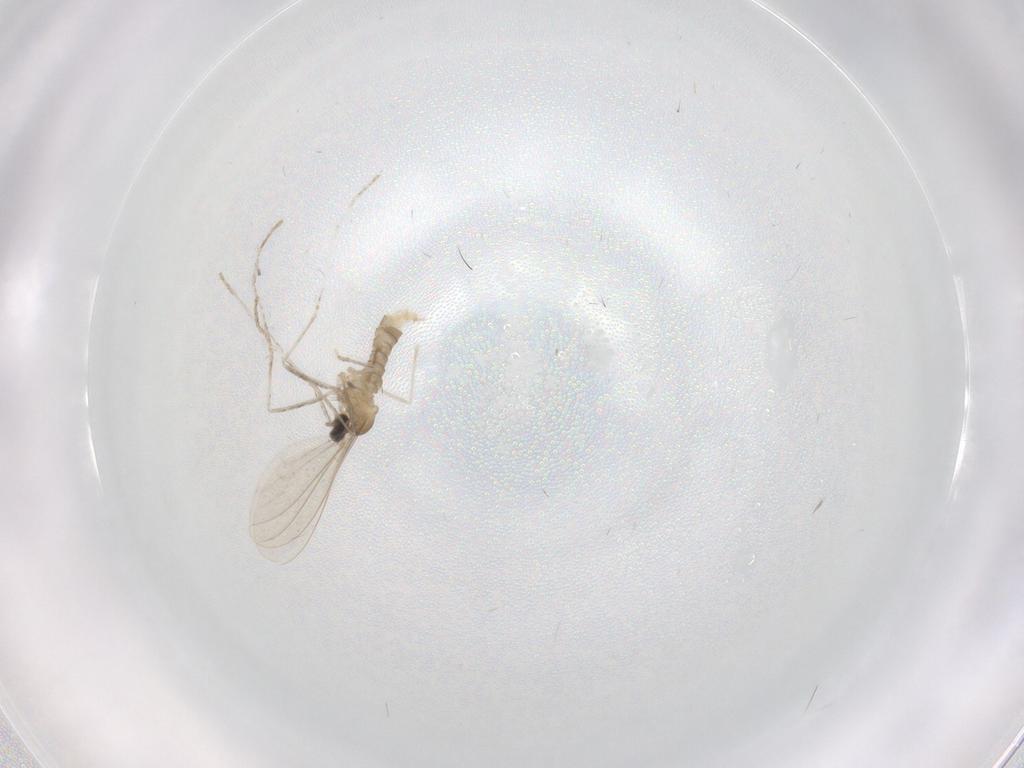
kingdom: Animalia
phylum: Arthropoda
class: Insecta
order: Diptera
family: Cecidomyiidae
